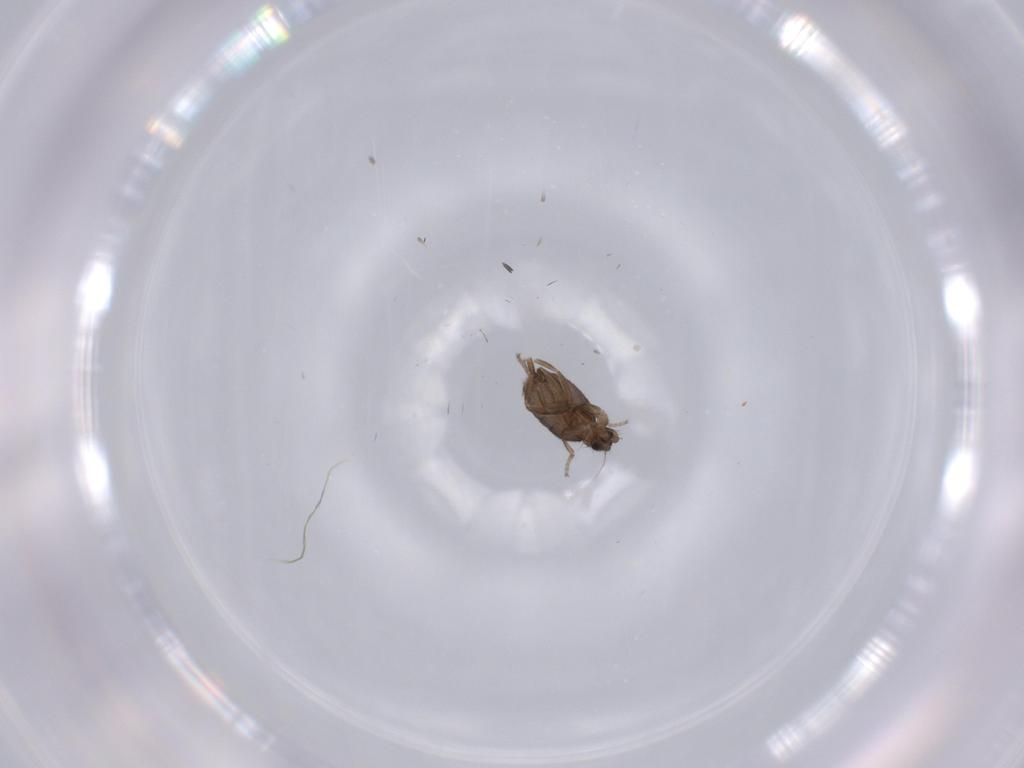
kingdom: Animalia
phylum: Arthropoda
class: Insecta
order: Diptera
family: Phoridae
